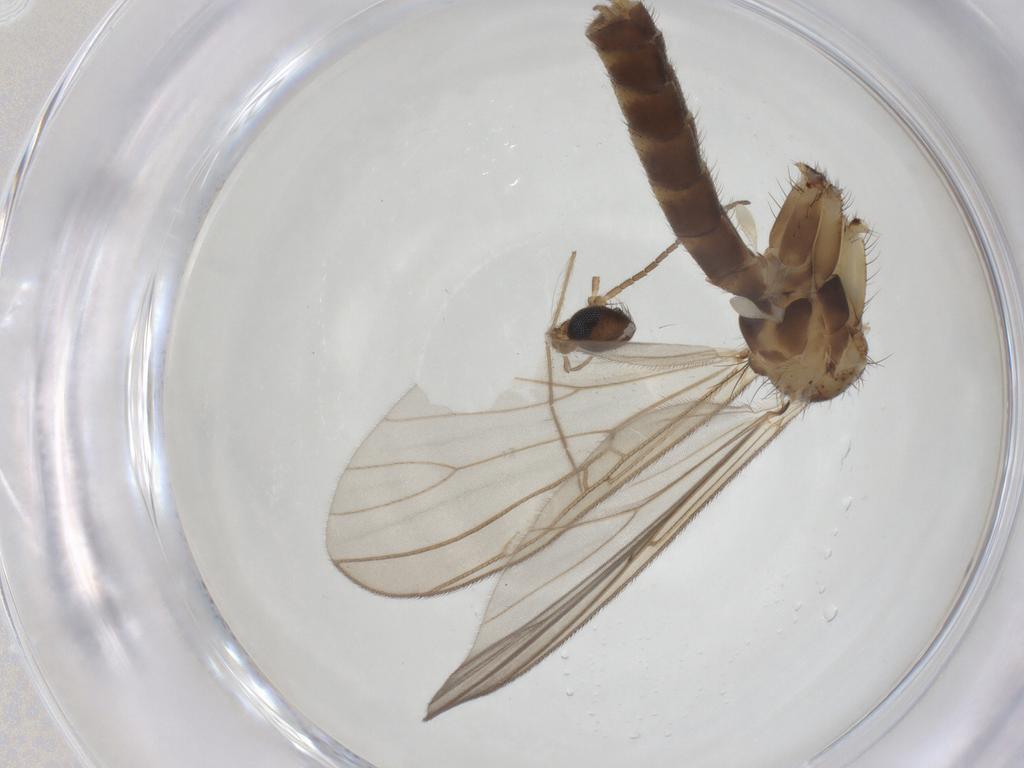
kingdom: Animalia
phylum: Arthropoda
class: Insecta
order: Diptera
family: Mycetophilidae
